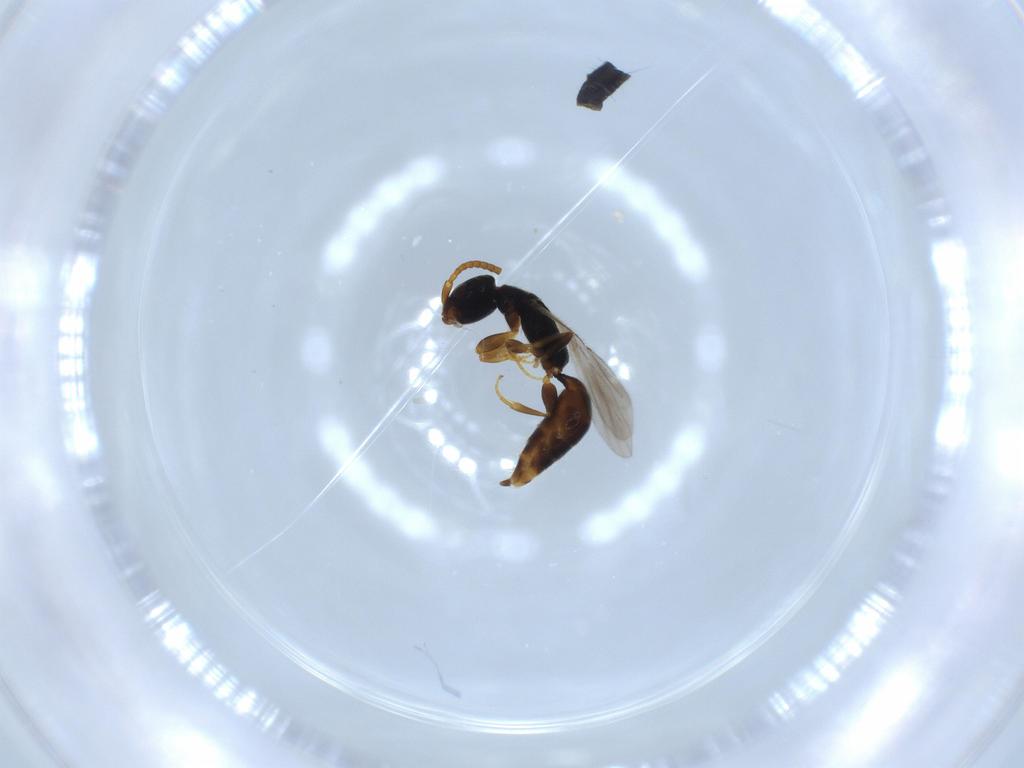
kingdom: Animalia
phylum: Arthropoda
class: Insecta
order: Hymenoptera
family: Bethylidae
